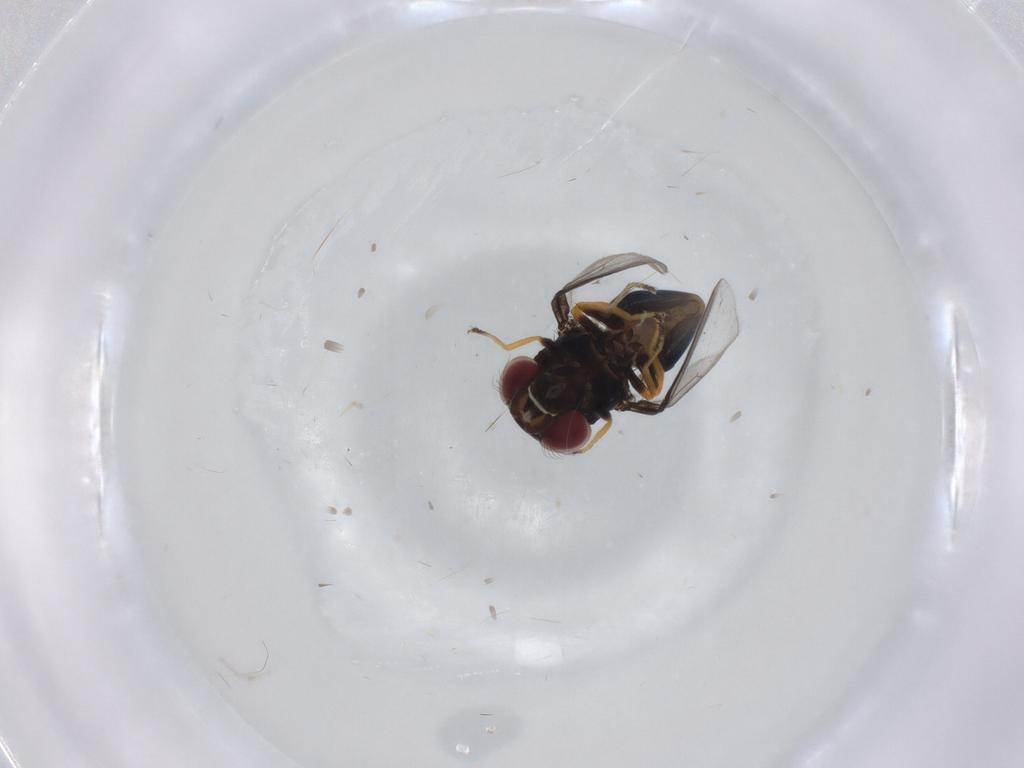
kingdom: Animalia
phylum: Arthropoda
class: Insecta
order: Diptera
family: Chloropidae
